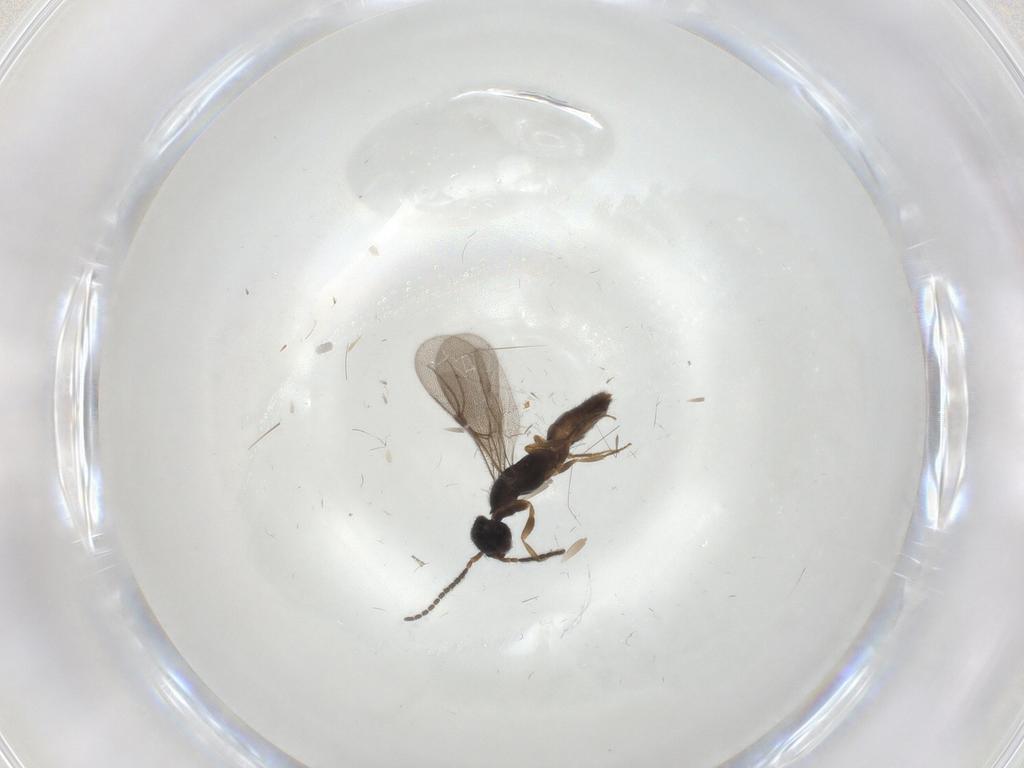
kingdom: Animalia
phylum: Arthropoda
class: Insecta
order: Hymenoptera
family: Bethylidae
